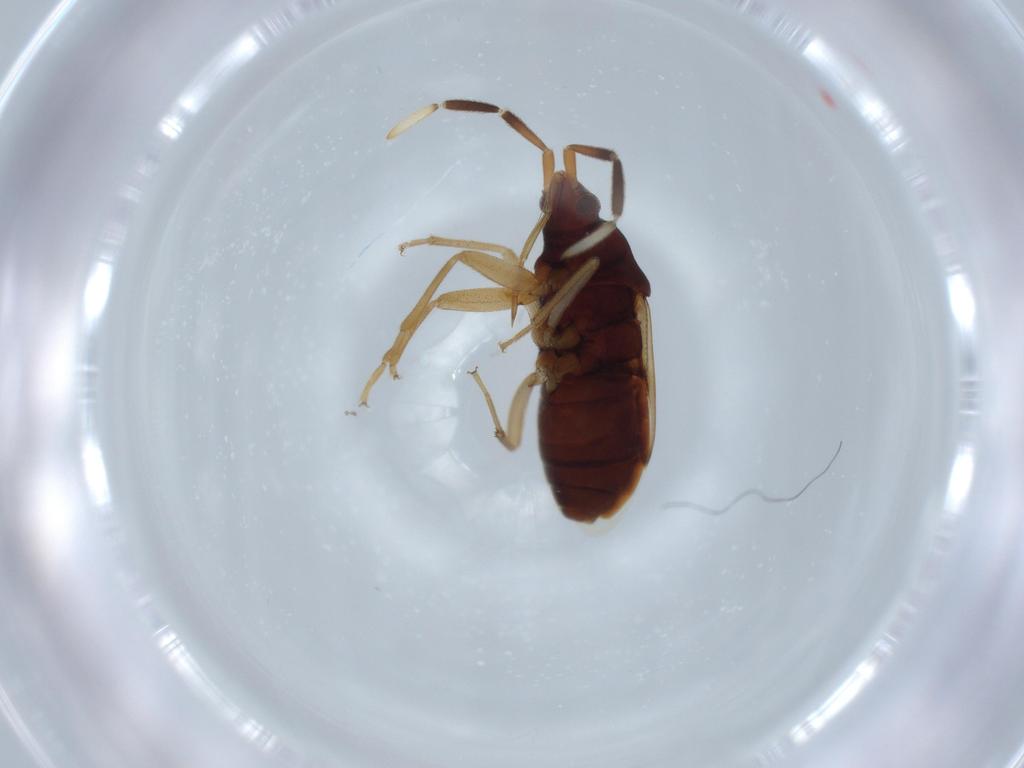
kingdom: Animalia
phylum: Arthropoda
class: Insecta
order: Hemiptera
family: Rhyparochromidae
